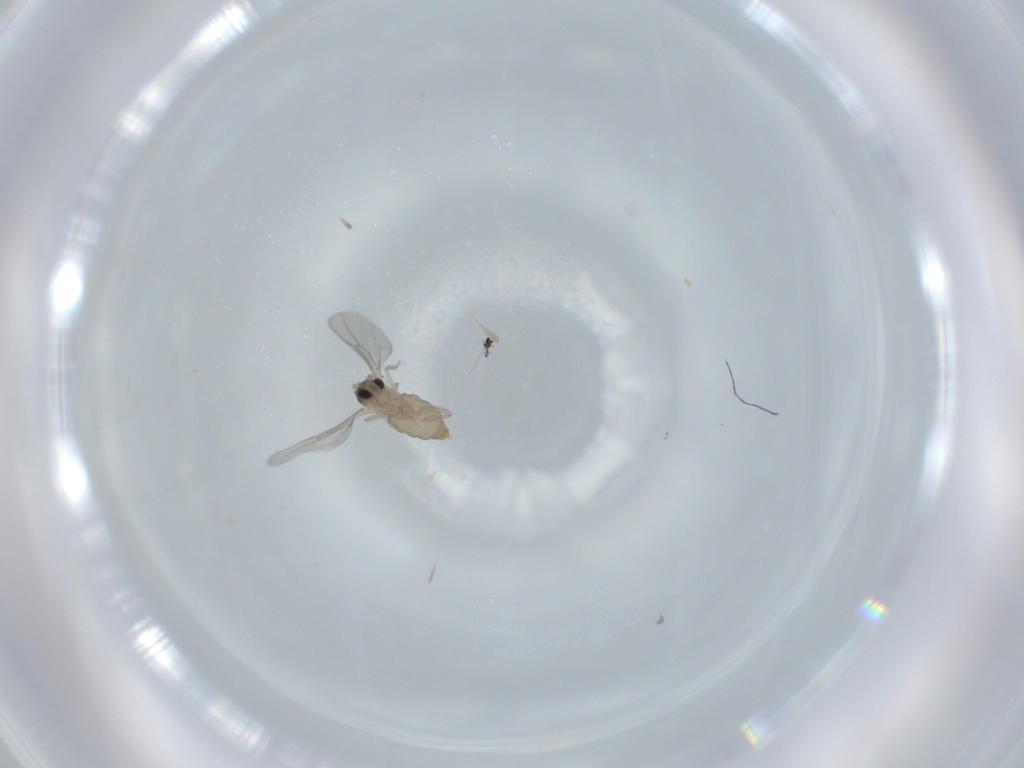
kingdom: Animalia
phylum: Arthropoda
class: Insecta
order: Diptera
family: Cecidomyiidae
